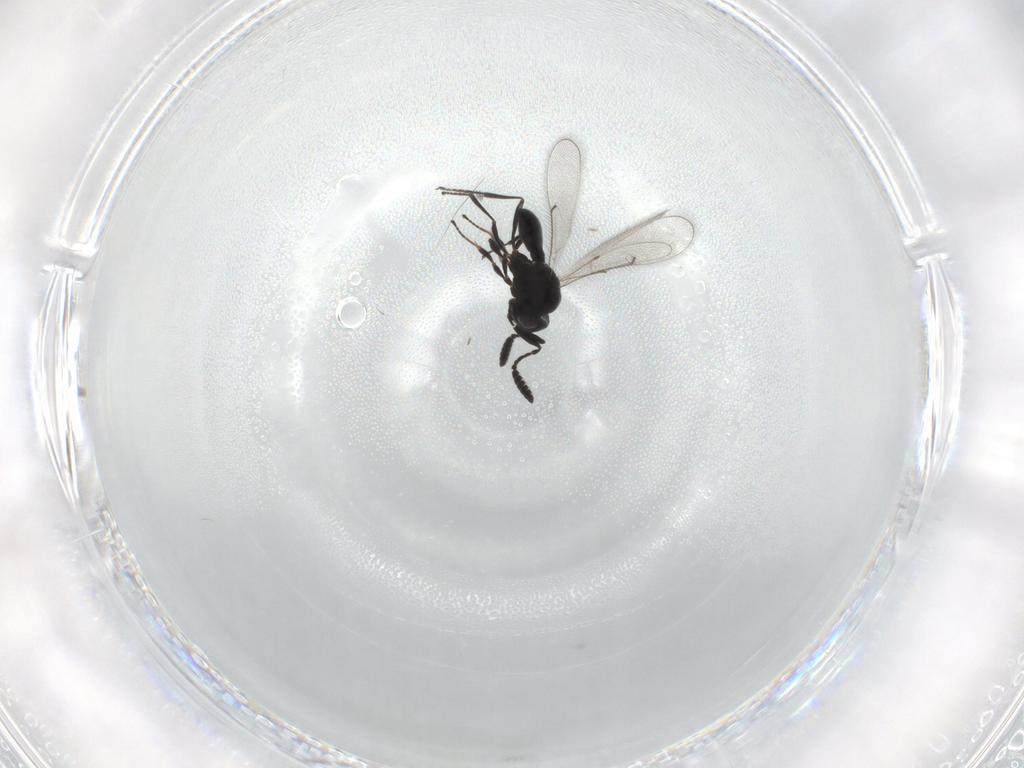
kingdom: Animalia
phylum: Arthropoda
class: Insecta
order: Hymenoptera
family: Scelionidae
